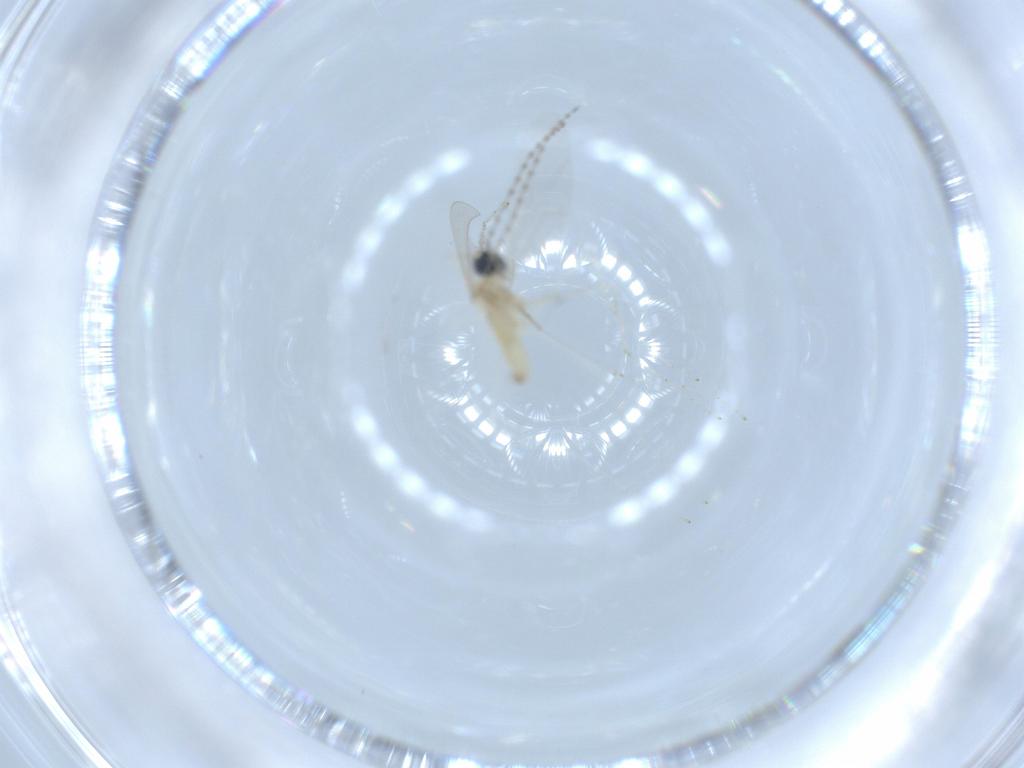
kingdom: Animalia
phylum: Arthropoda
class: Insecta
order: Diptera
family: Cecidomyiidae
